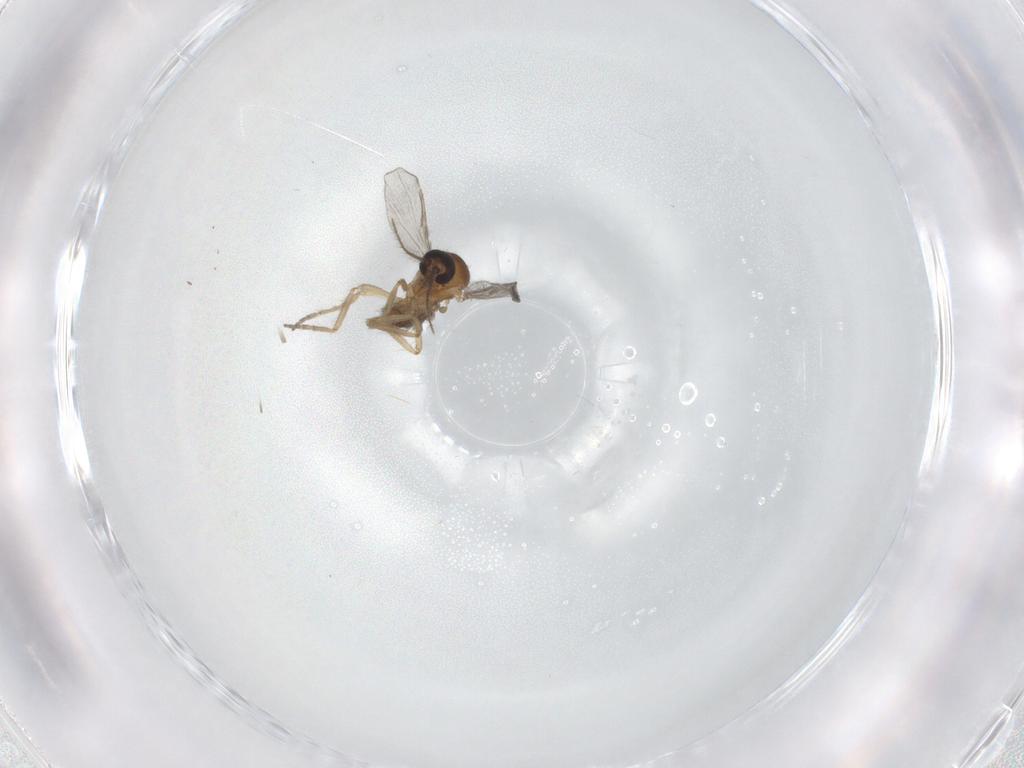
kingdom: Animalia
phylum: Arthropoda
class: Insecta
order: Diptera
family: Ceratopogonidae
